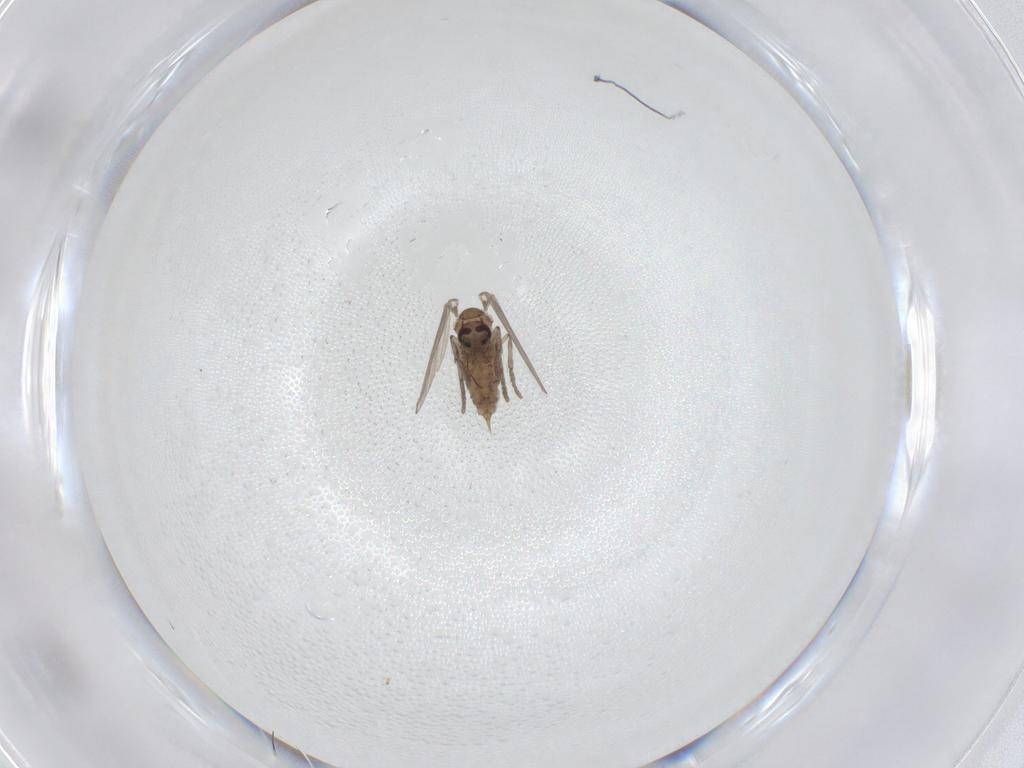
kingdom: Animalia
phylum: Arthropoda
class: Insecta
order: Diptera
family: Psychodidae
